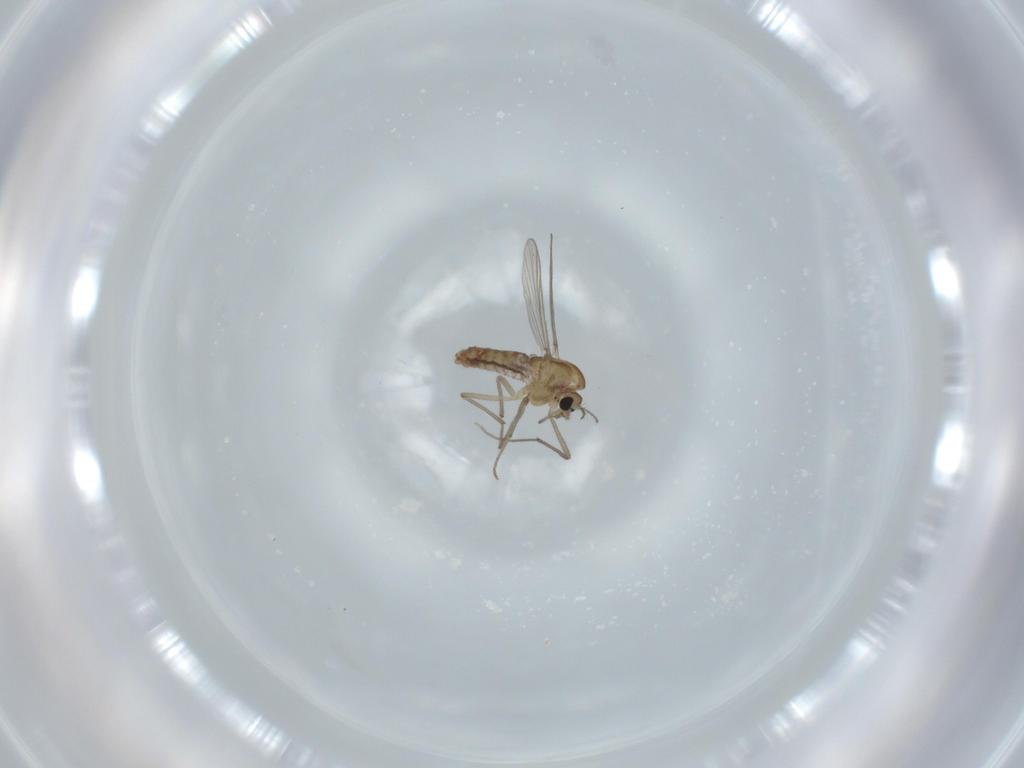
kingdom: Animalia
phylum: Arthropoda
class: Insecta
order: Diptera
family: Chironomidae
